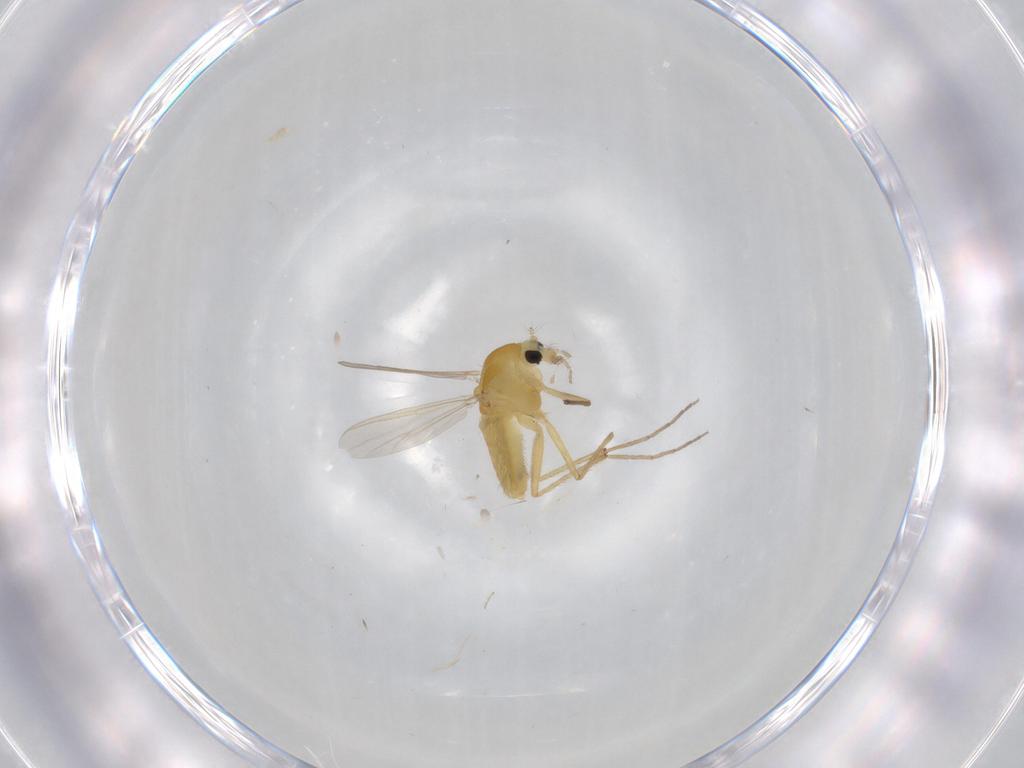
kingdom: Animalia
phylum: Arthropoda
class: Insecta
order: Diptera
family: Chironomidae
